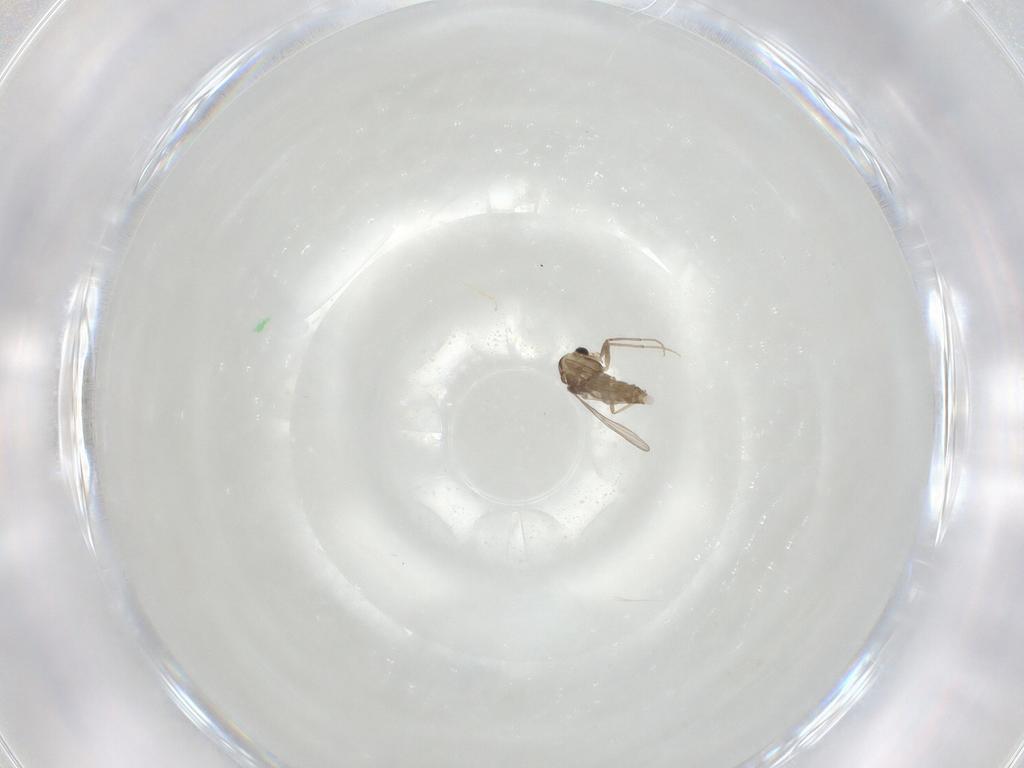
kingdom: Animalia
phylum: Arthropoda
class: Insecta
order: Diptera
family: Chironomidae
